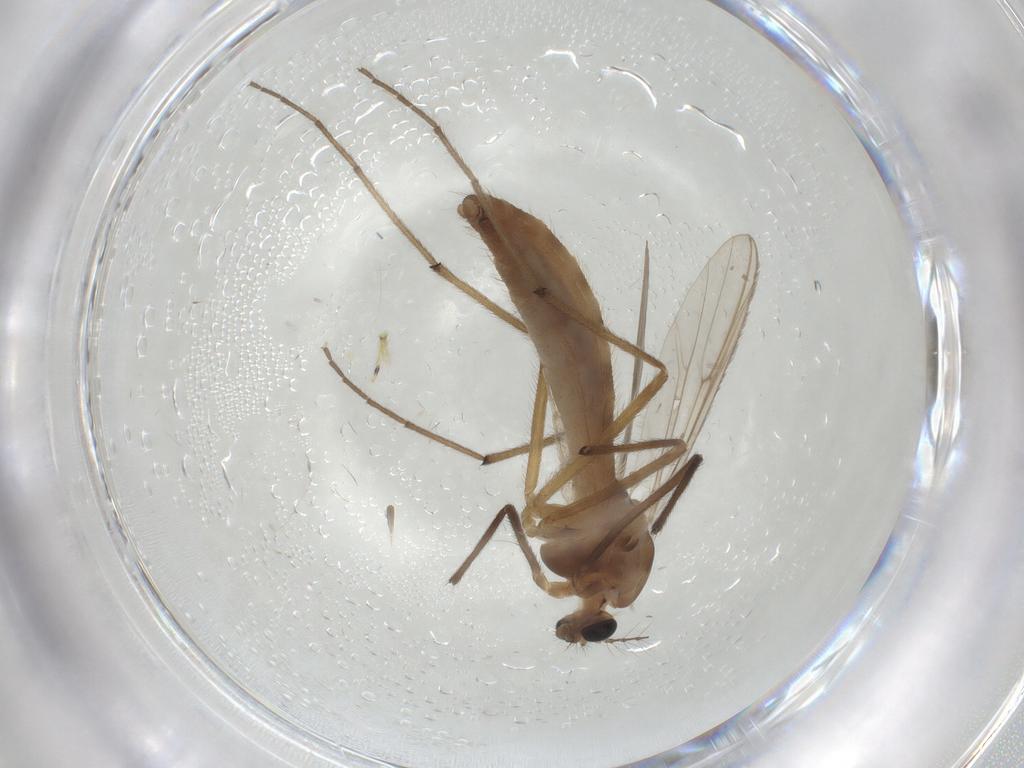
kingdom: Animalia
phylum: Arthropoda
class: Insecta
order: Diptera
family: Chironomidae
